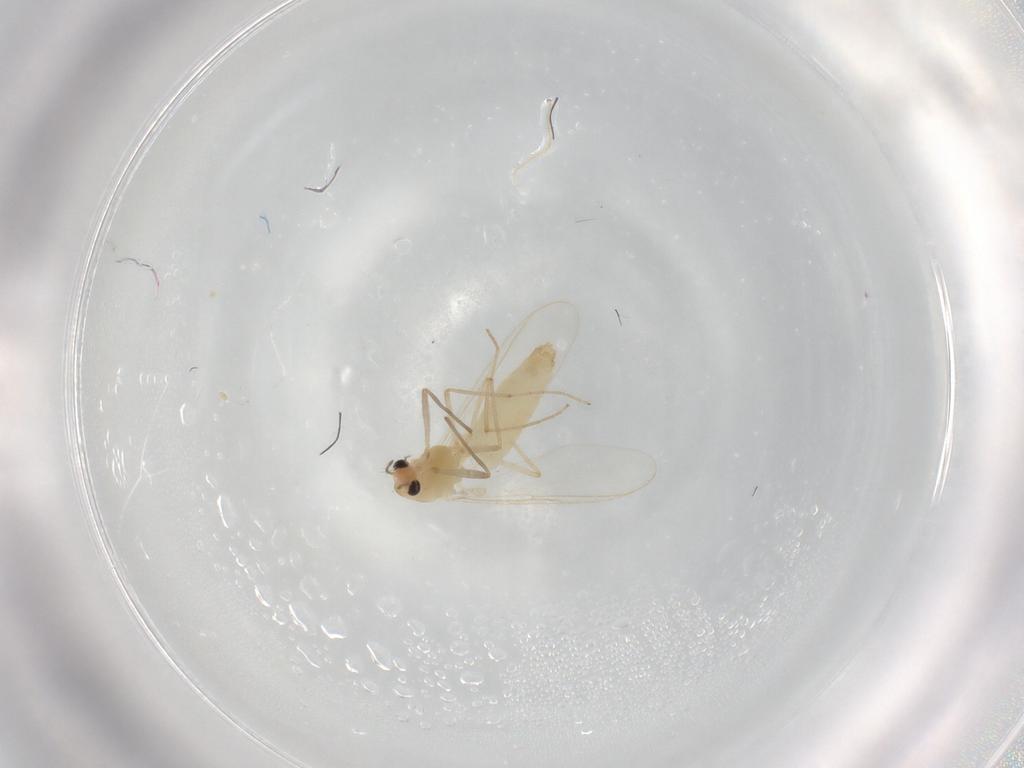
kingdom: Animalia
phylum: Arthropoda
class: Insecta
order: Diptera
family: Chironomidae
